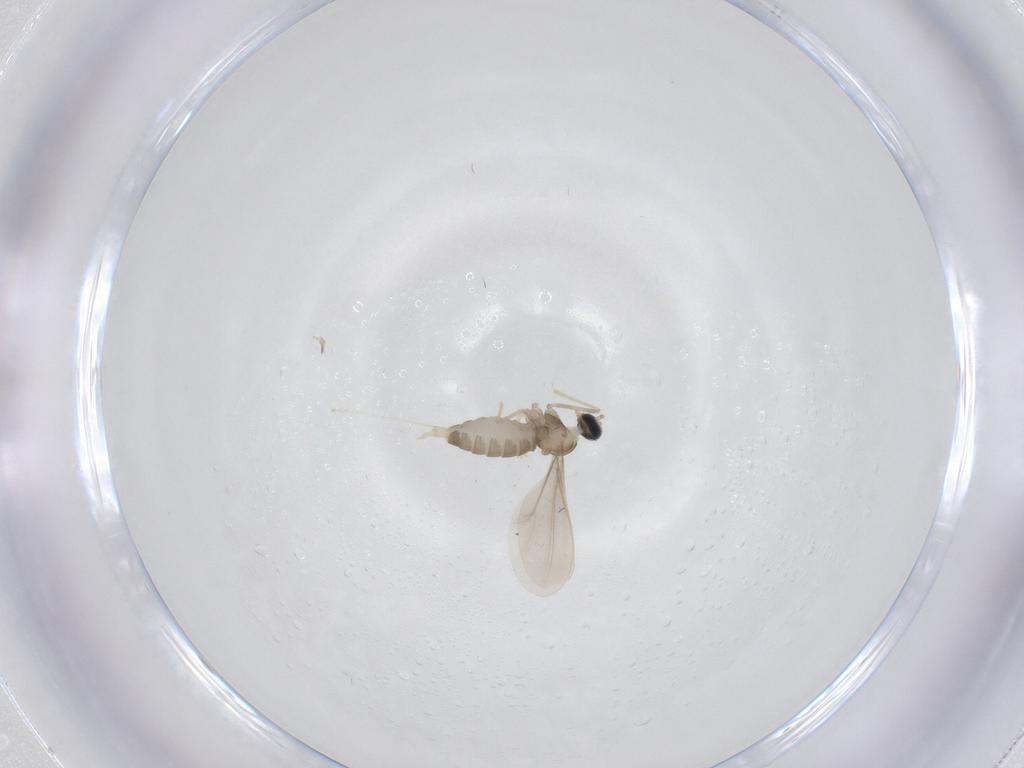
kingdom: Animalia
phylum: Arthropoda
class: Insecta
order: Diptera
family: Cecidomyiidae
